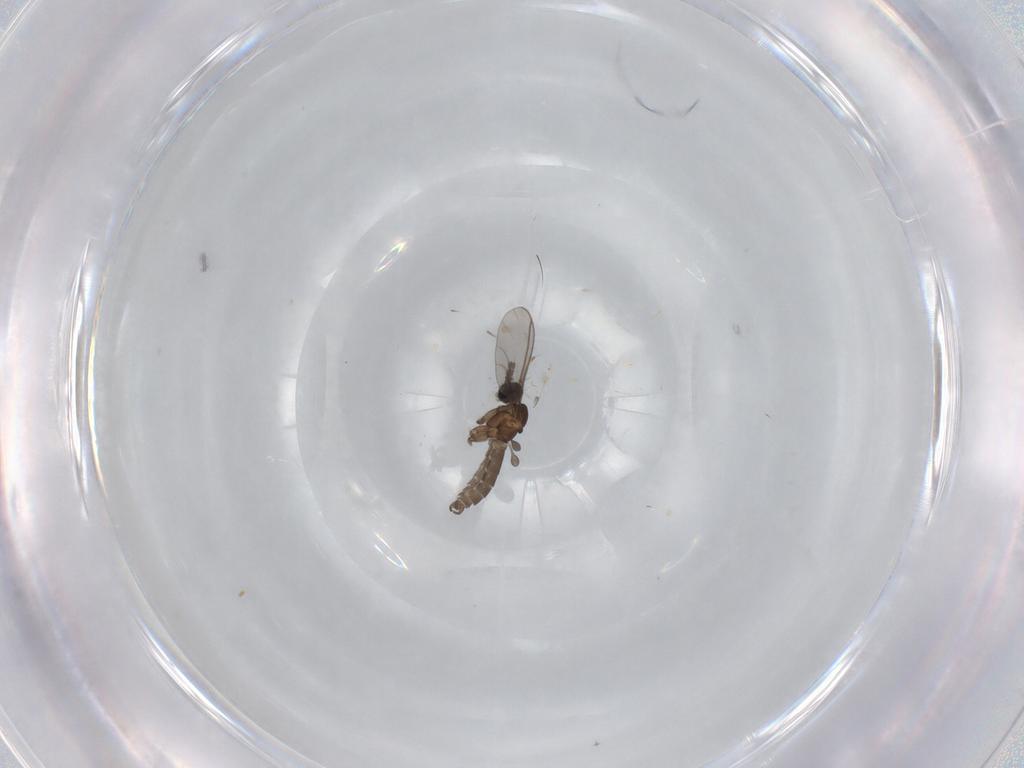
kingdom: Animalia
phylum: Arthropoda
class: Insecta
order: Diptera
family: Sciaridae
